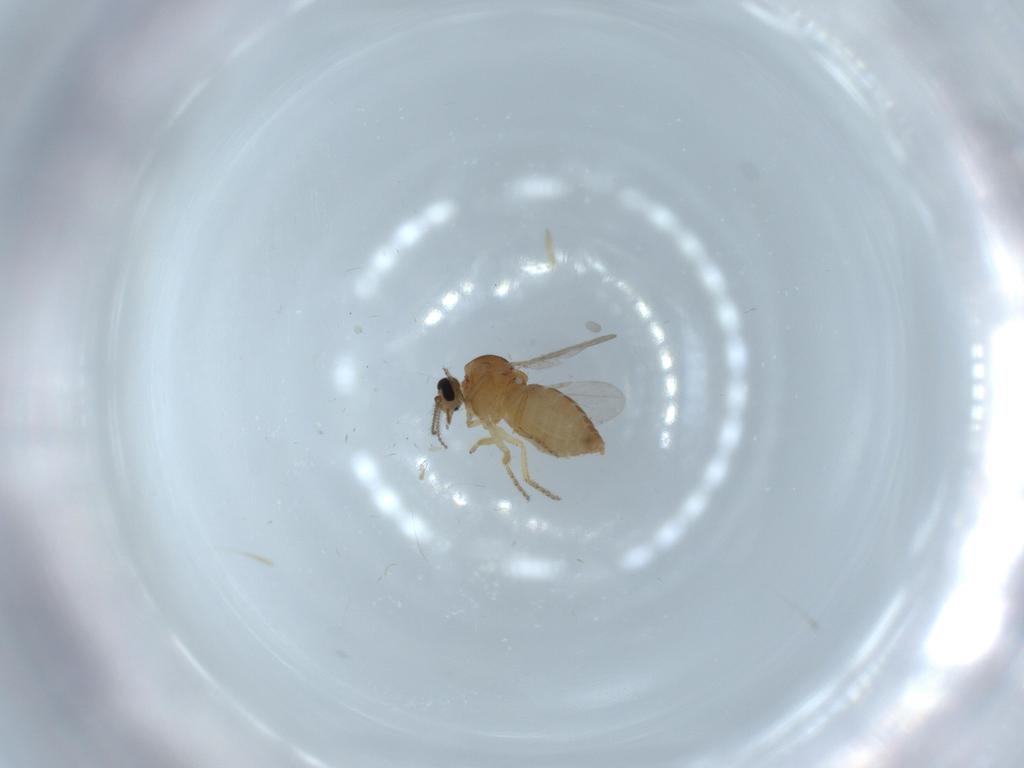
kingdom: Animalia
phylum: Arthropoda
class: Insecta
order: Diptera
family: Ceratopogonidae
